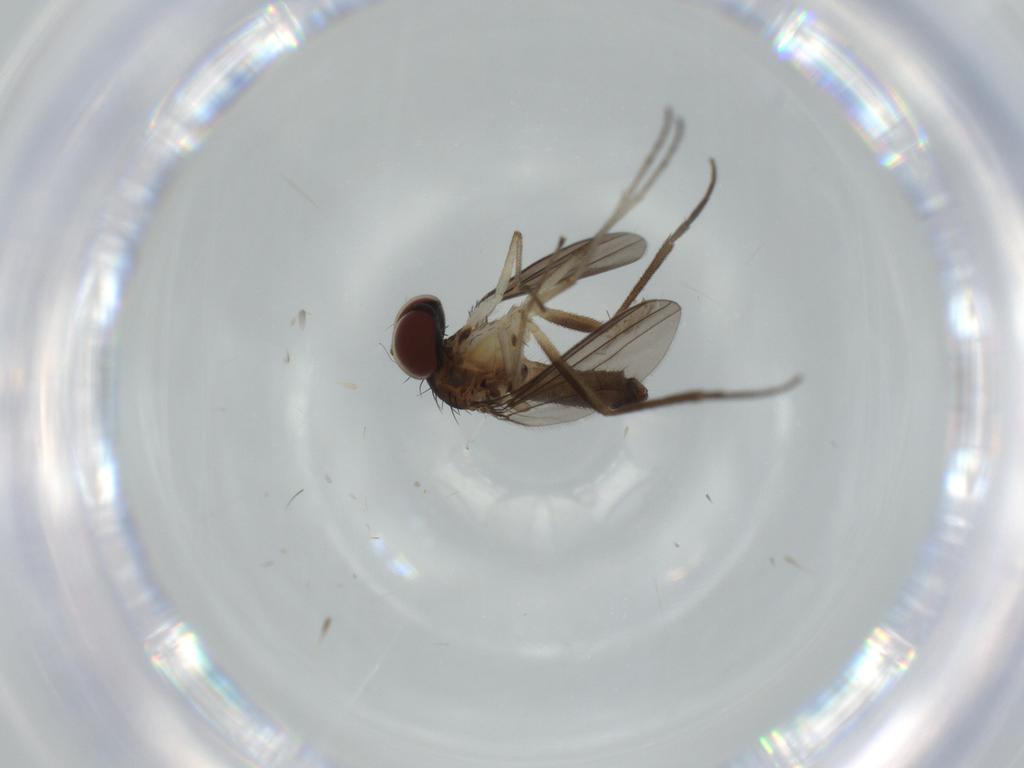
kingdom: Animalia
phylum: Arthropoda
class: Insecta
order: Diptera
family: Dolichopodidae
